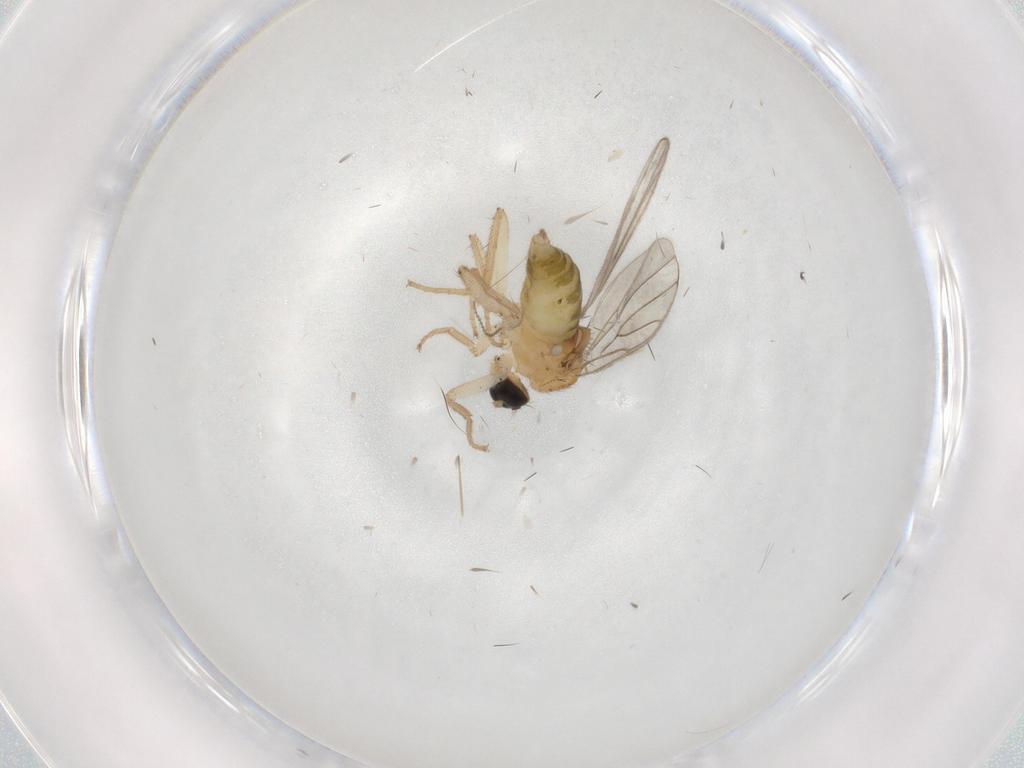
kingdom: Animalia
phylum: Arthropoda
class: Insecta
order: Diptera
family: Hybotidae
